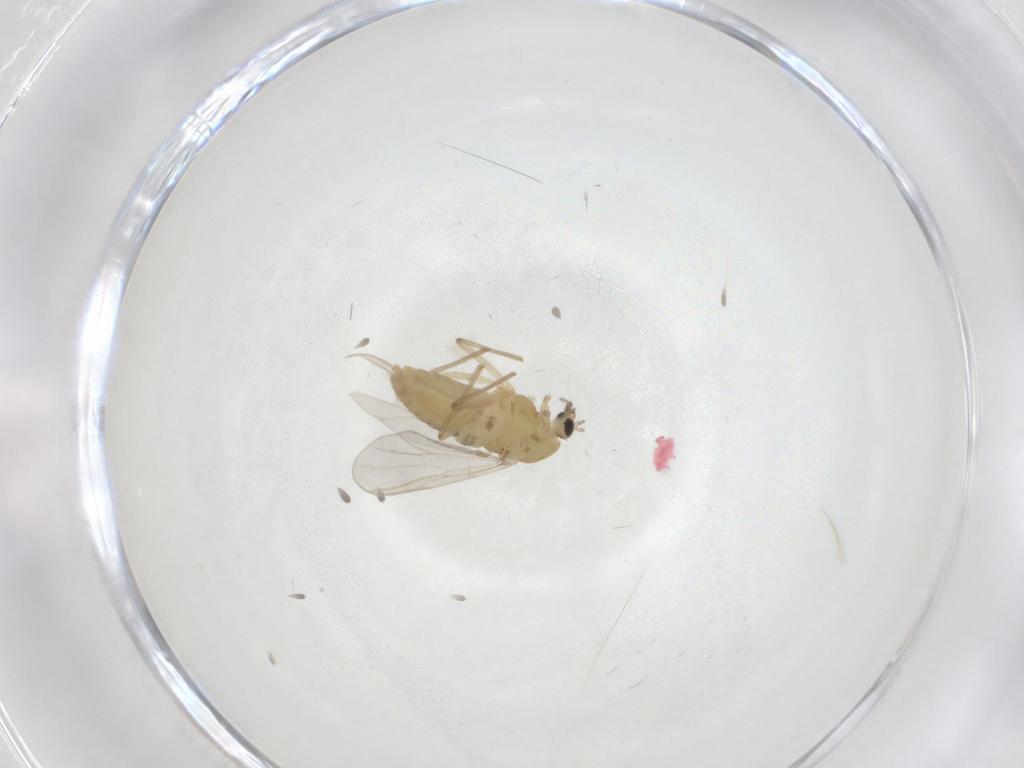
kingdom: Animalia
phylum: Arthropoda
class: Insecta
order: Diptera
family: Chironomidae
